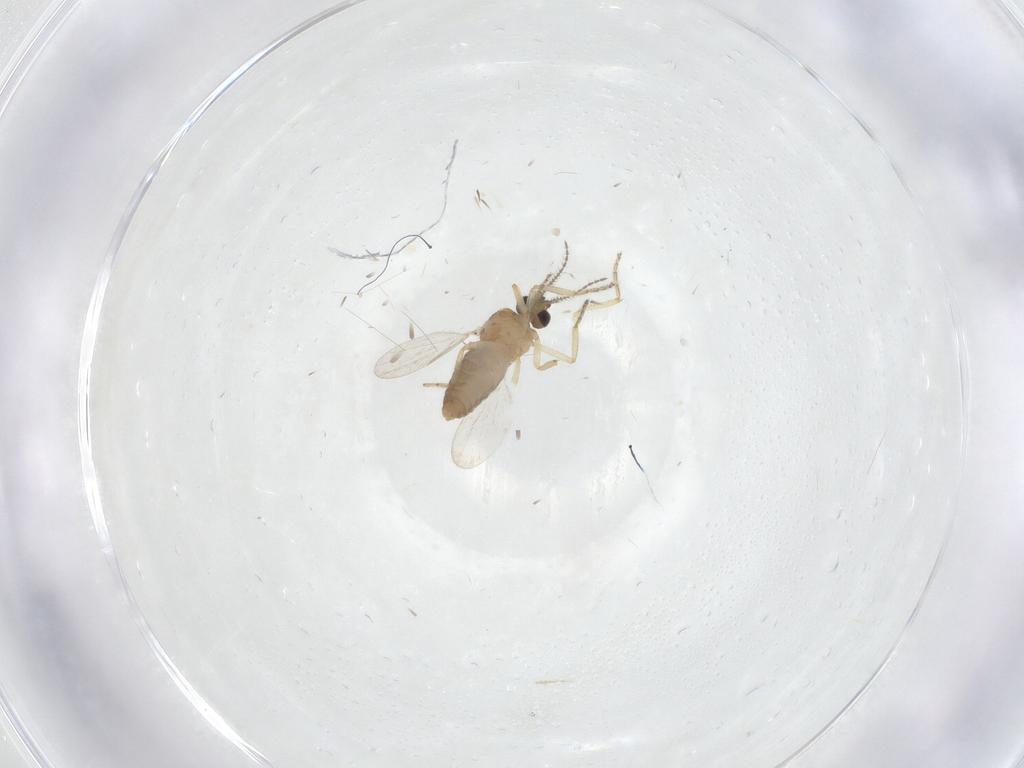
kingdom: Animalia
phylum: Arthropoda
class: Insecta
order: Diptera
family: Ceratopogonidae
